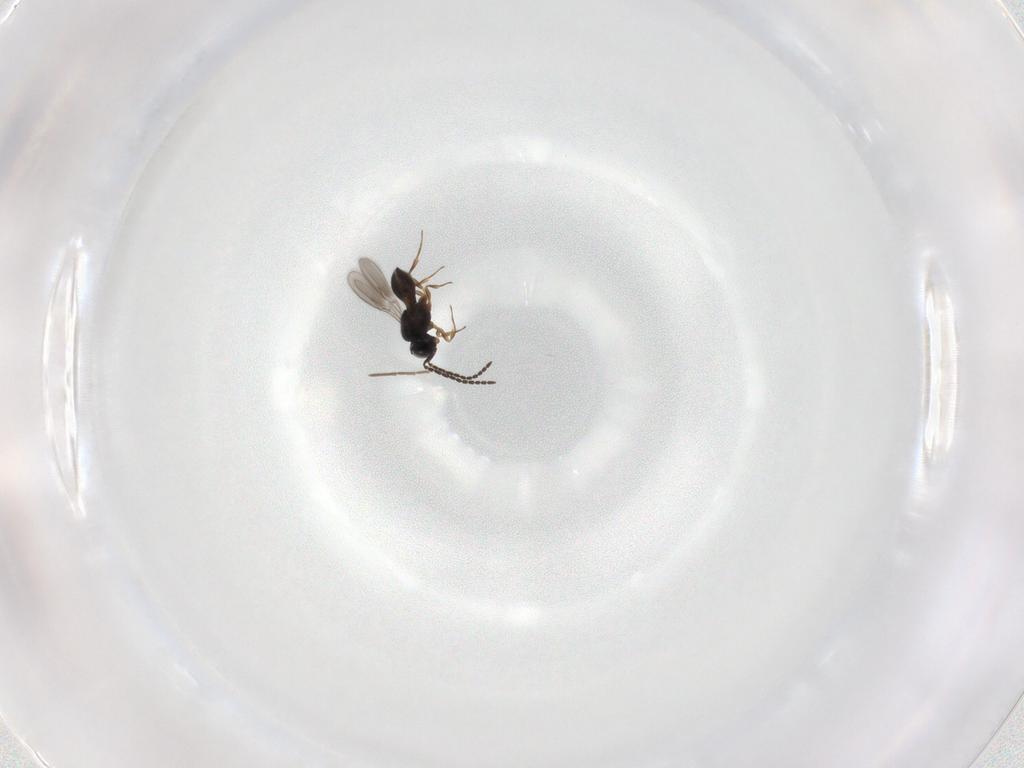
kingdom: Animalia
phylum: Arthropoda
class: Insecta
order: Hymenoptera
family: Scelionidae
